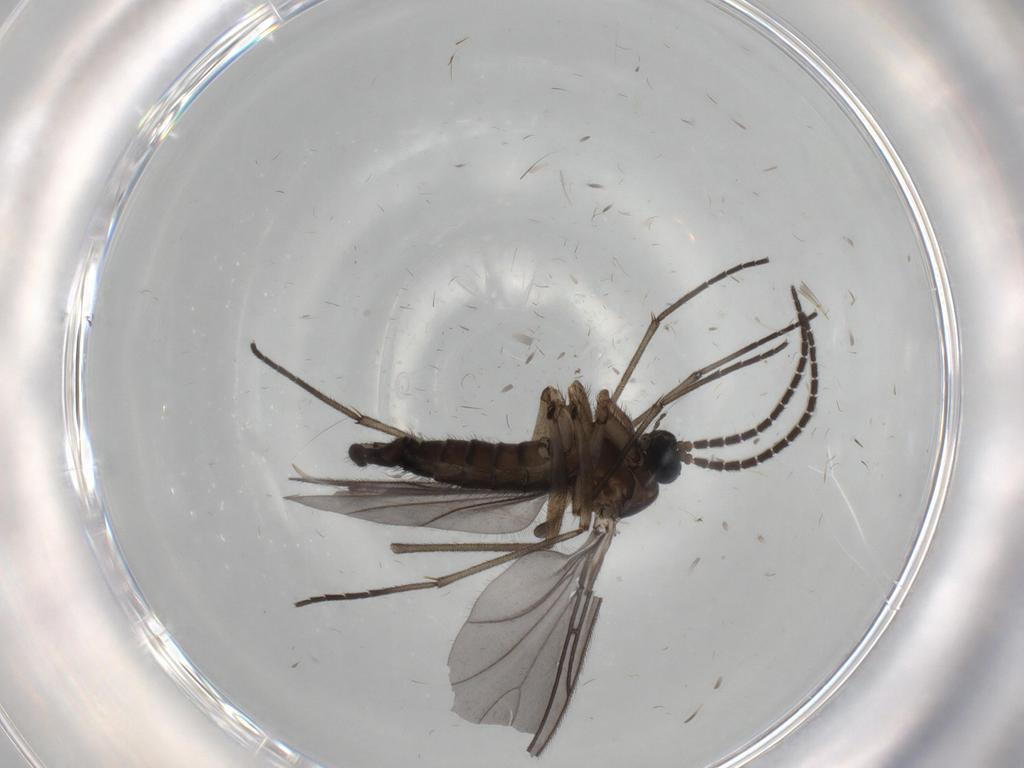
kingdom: Animalia
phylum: Arthropoda
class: Insecta
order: Diptera
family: Sciaridae
